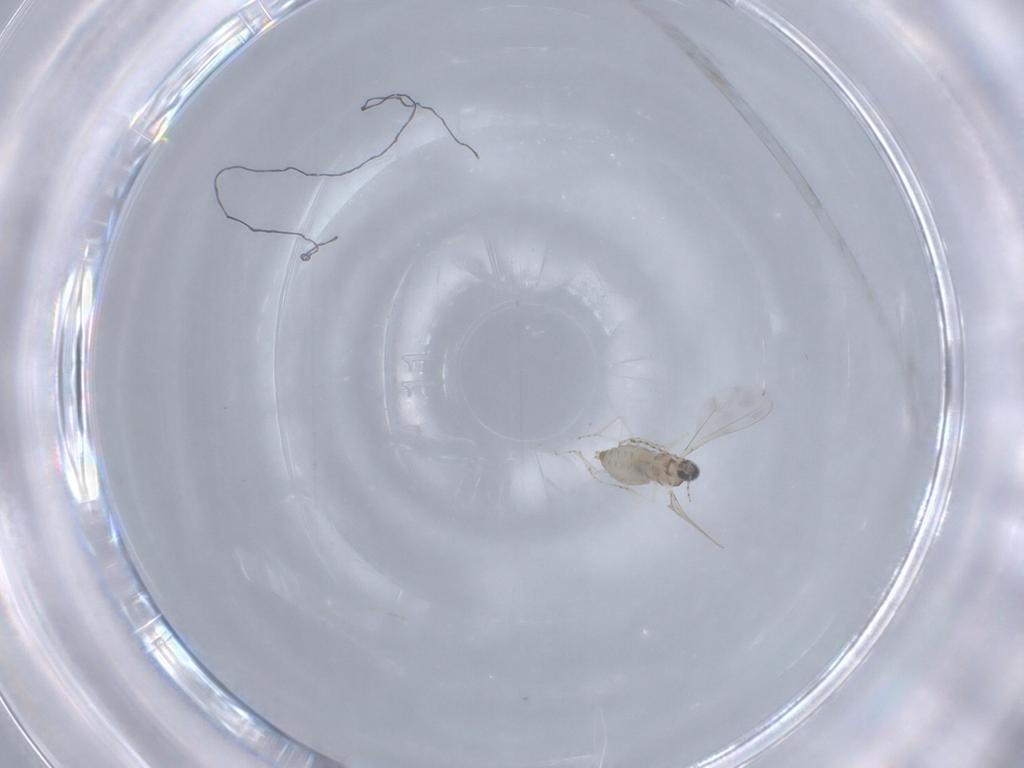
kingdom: Animalia
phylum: Arthropoda
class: Insecta
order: Diptera
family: Cecidomyiidae
